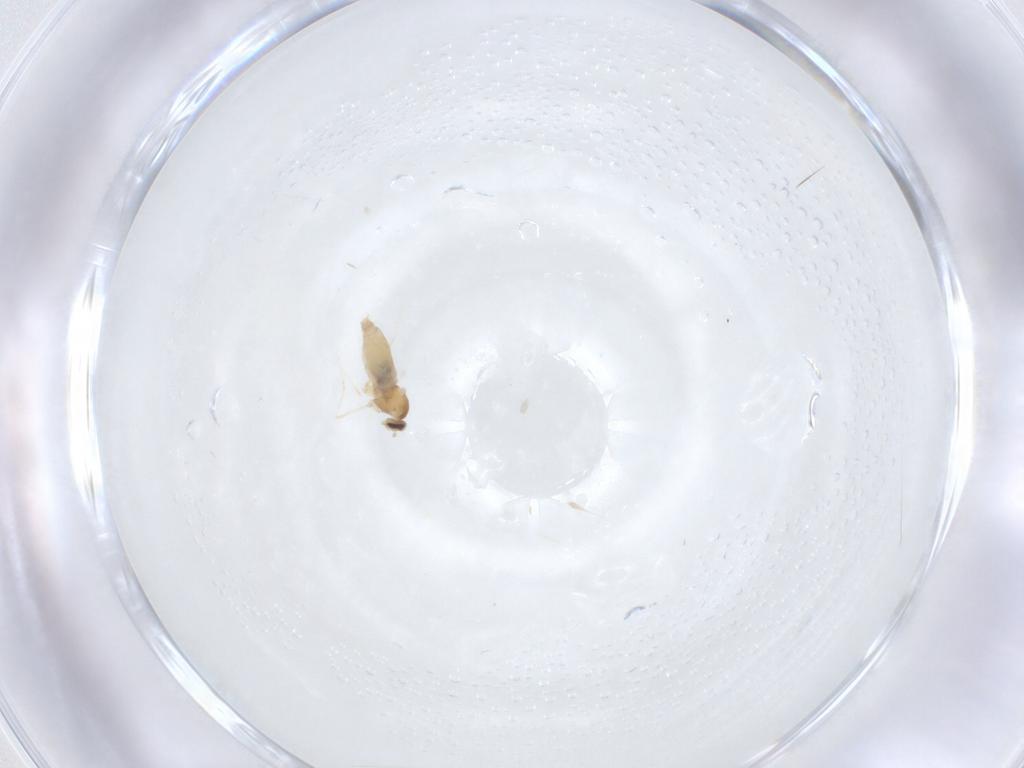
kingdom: Animalia
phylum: Arthropoda
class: Insecta
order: Diptera
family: Cecidomyiidae
